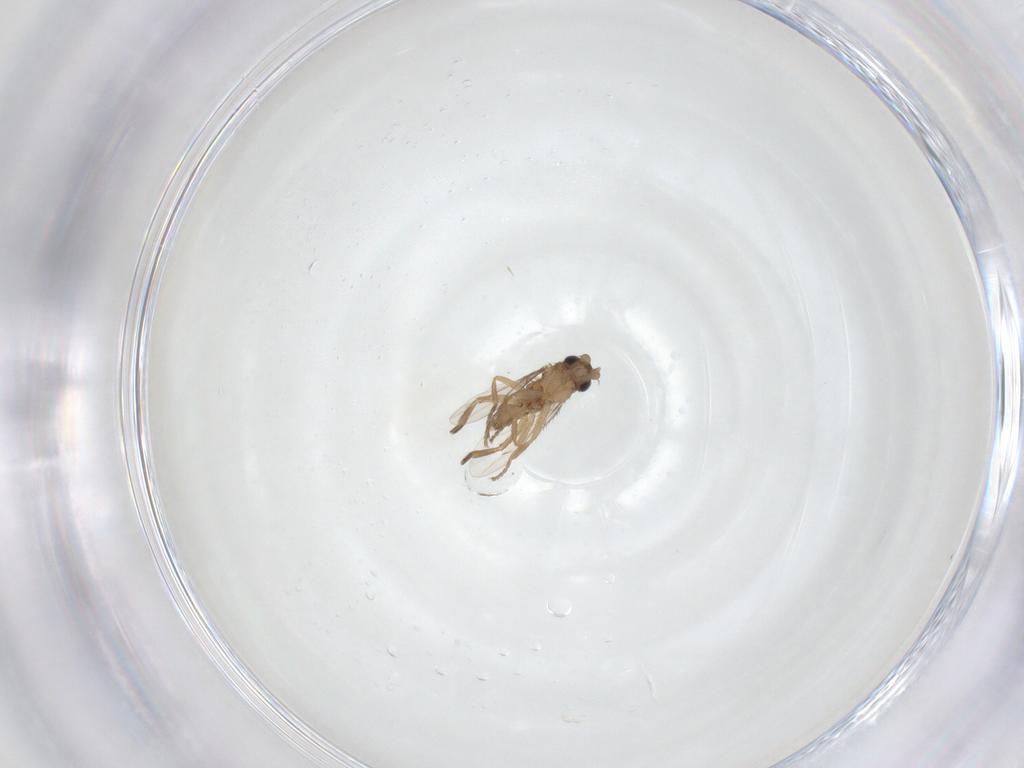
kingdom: Animalia
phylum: Arthropoda
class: Insecta
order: Diptera
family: Phoridae
